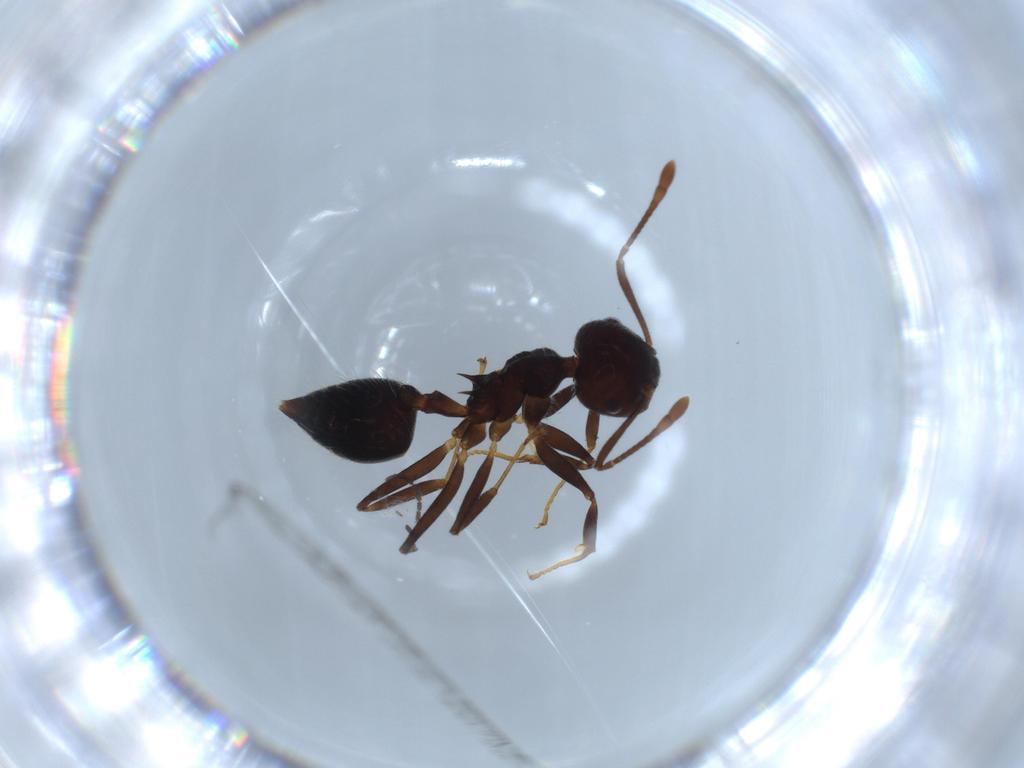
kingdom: Animalia
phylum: Arthropoda
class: Insecta
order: Hymenoptera
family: Formicidae
